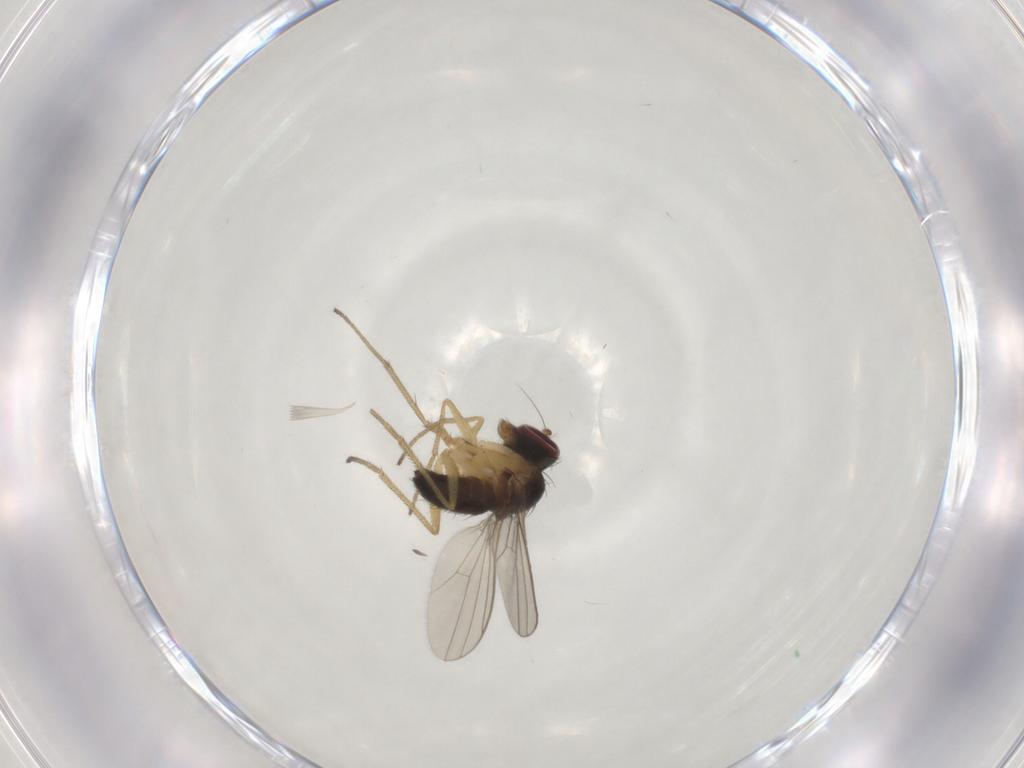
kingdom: Animalia
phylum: Arthropoda
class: Insecta
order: Diptera
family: Dolichopodidae
